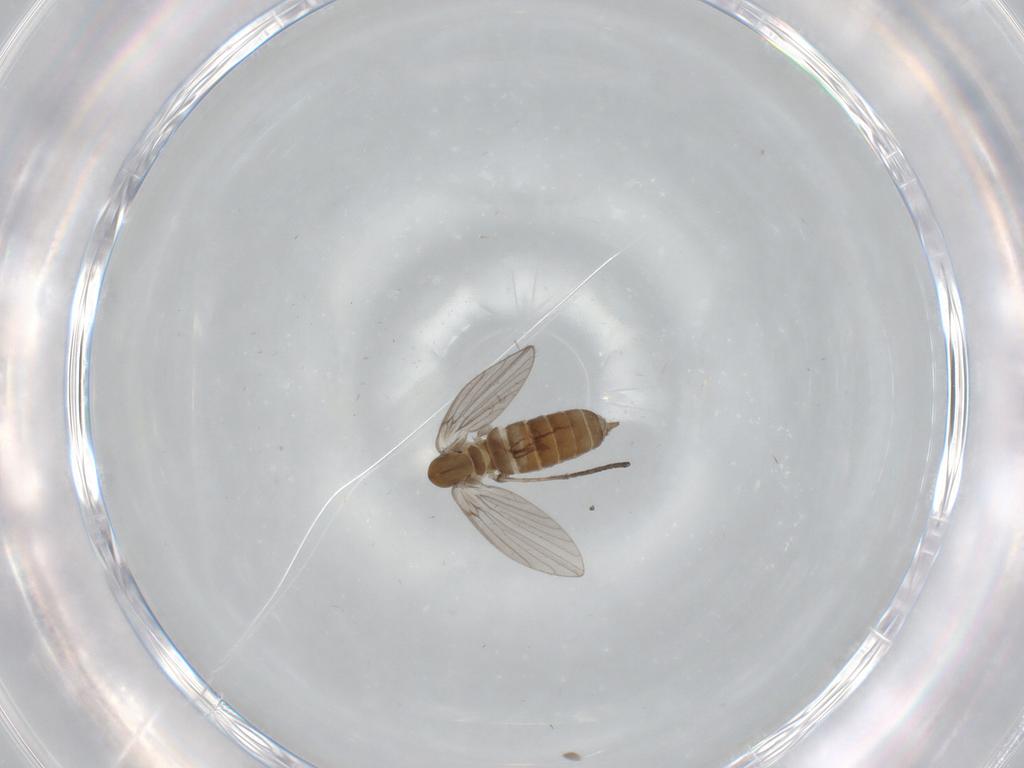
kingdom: Animalia
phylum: Arthropoda
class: Insecta
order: Diptera
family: Psychodidae
